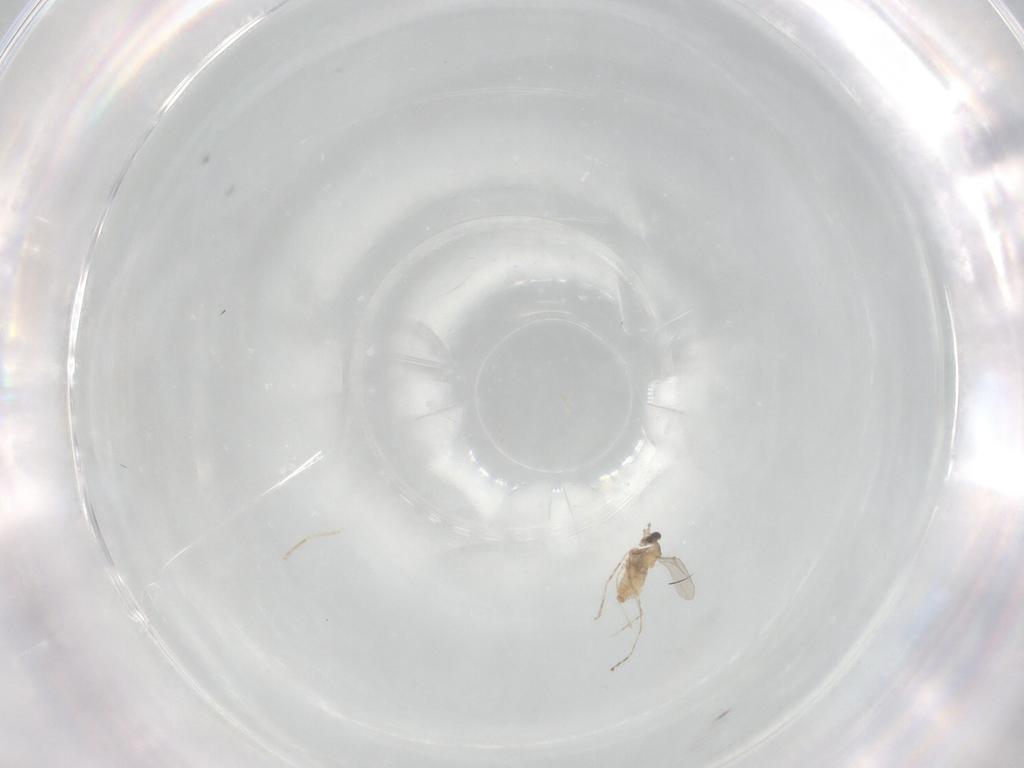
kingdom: Animalia
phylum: Arthropoda
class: Insecta
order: Diptera
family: Cecidomyiidae
